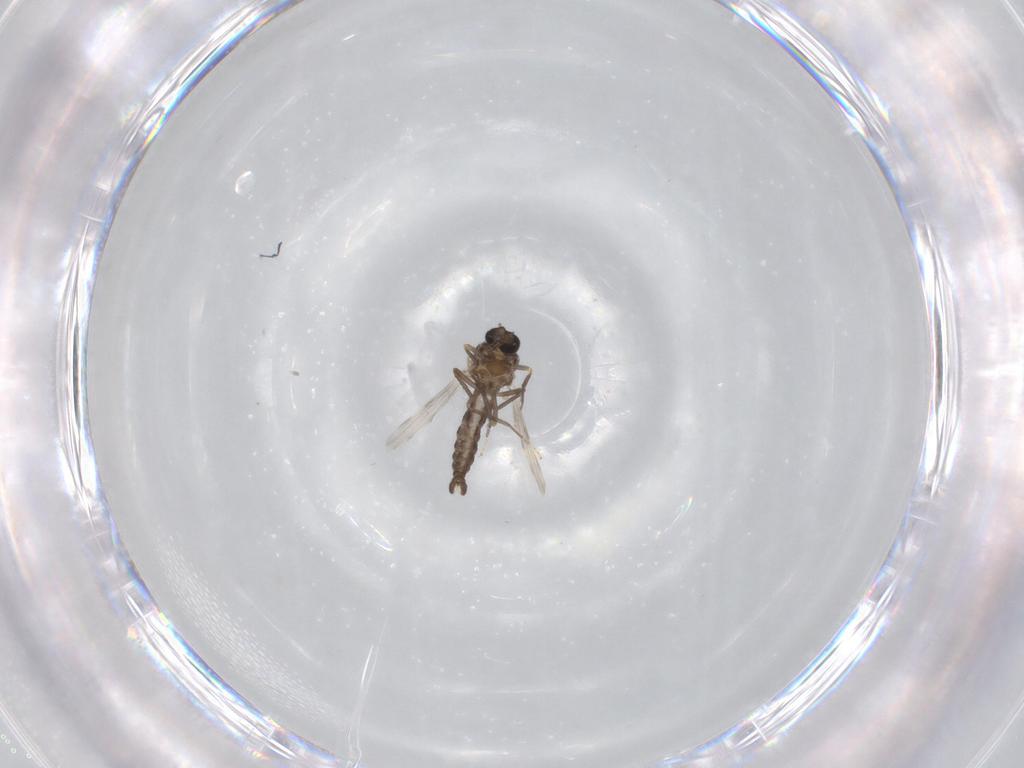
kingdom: Animalia
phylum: Arthropoda
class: Insecta
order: Diptera
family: Ceratopogonidae
